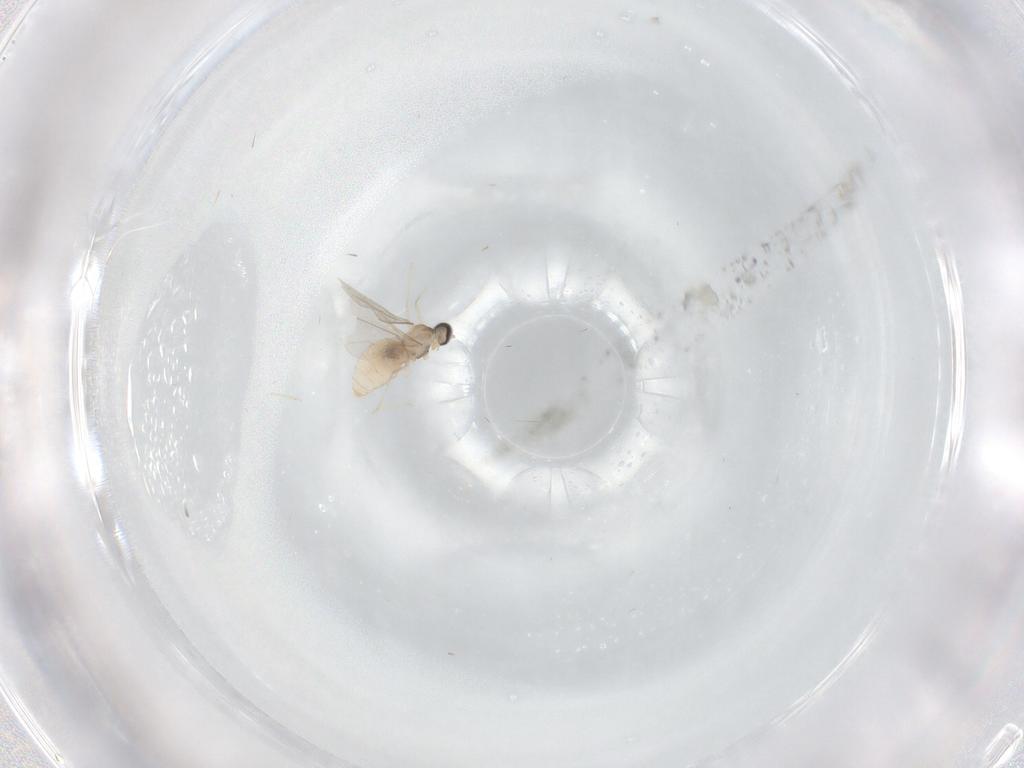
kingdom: Animalia
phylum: Arthropoda
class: Insecta
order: Diptera
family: Cecidomyiidae
